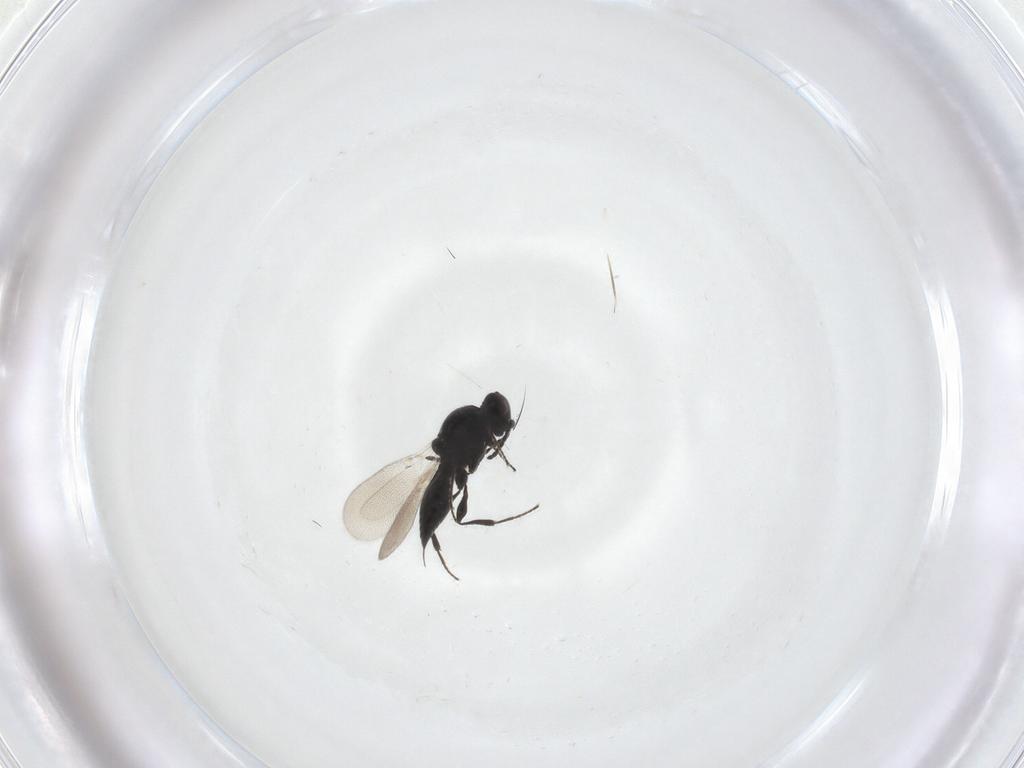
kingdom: Animalia
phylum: Arthropoda
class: Insecta
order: Hymenoptera
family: Platygastridae
